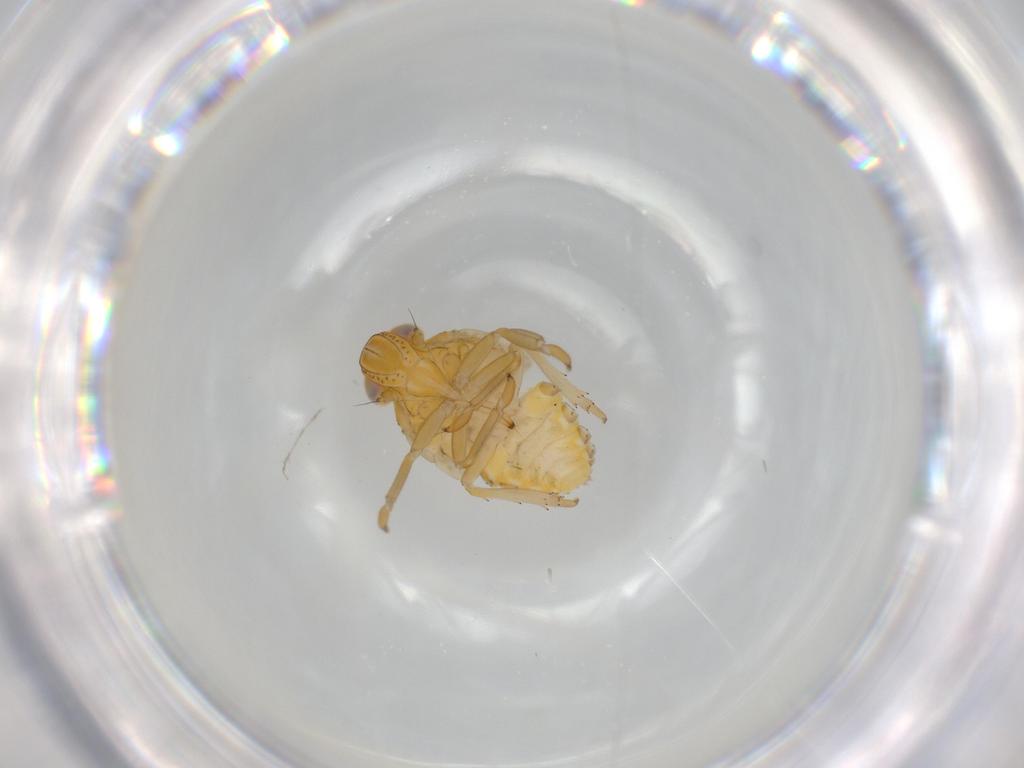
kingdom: Animalia
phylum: Arthropoda
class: Insecta
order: Hemiptera
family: Issidae
